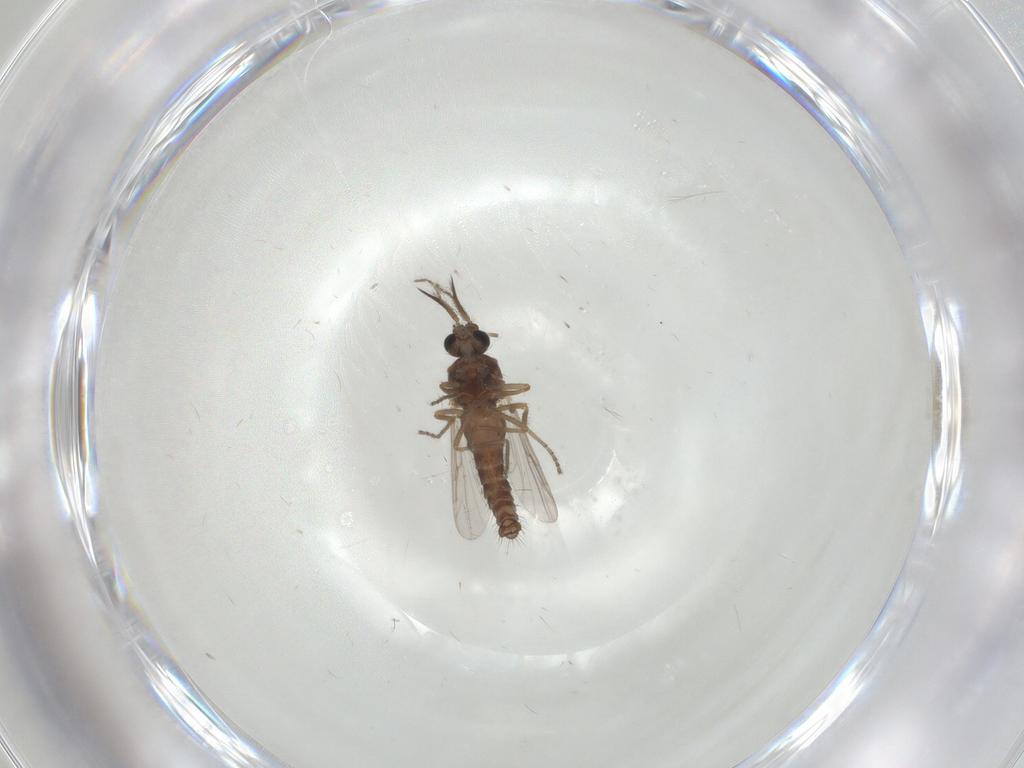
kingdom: Animalia
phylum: Arthropoda
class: Insecta
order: Diptera
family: Ceratopogonidae
